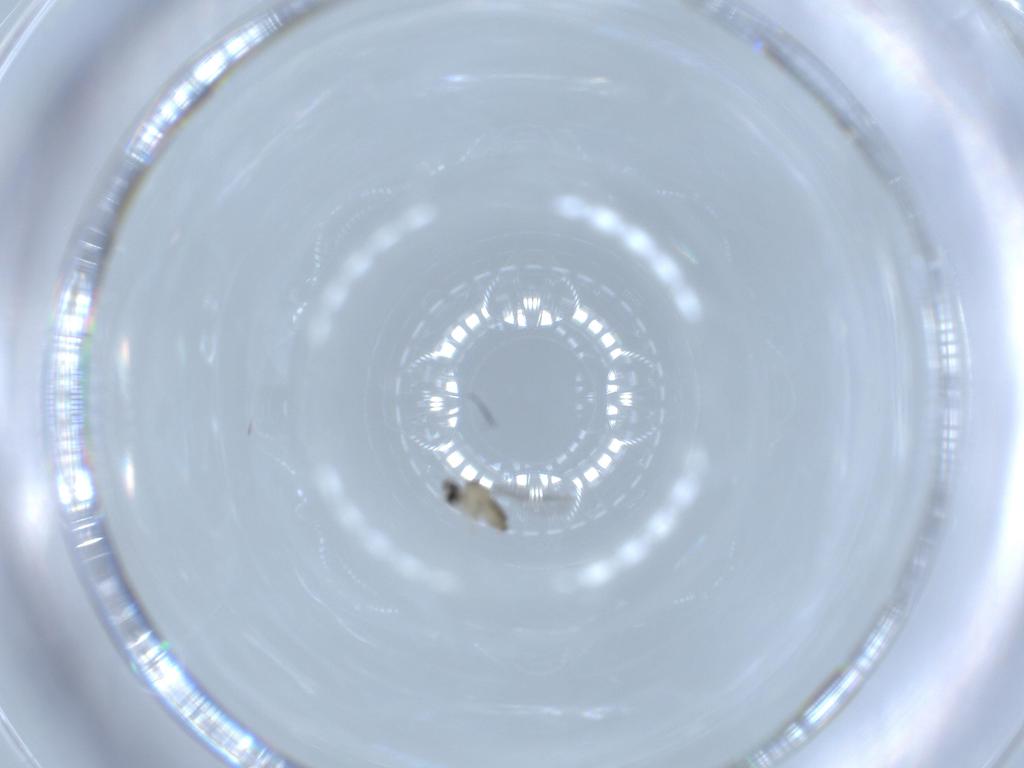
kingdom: Animalia
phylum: Arthropoda
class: Insecta
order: Diptera
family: Cecidomyiidae
